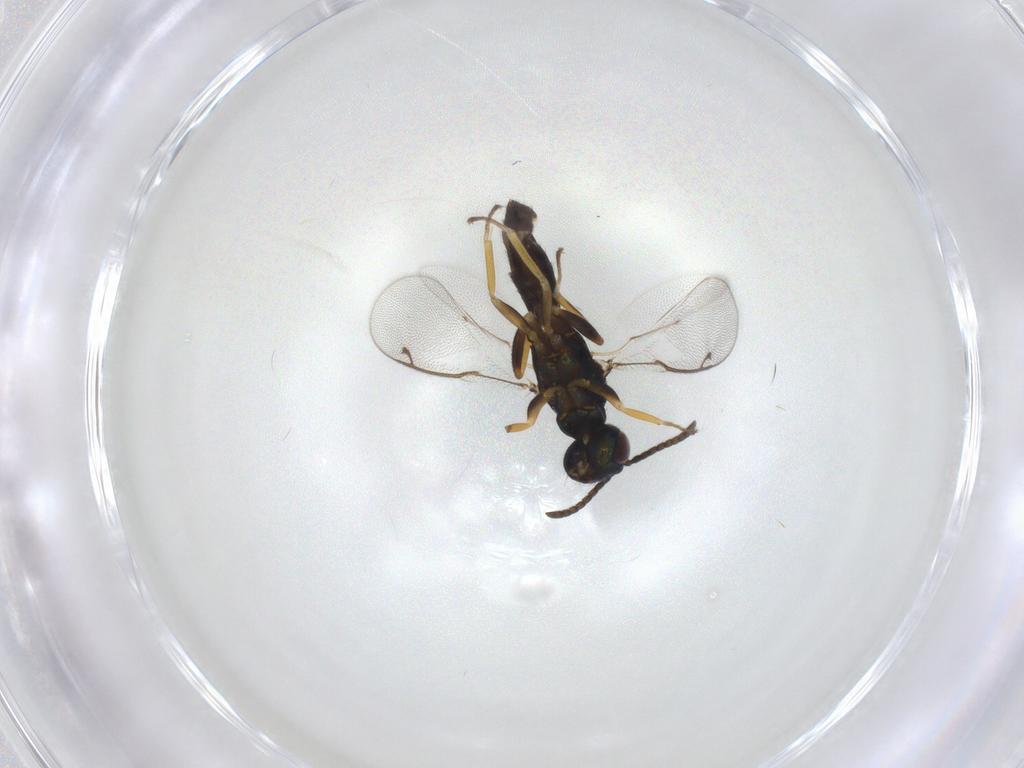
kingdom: Animalia
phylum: Arthropoda
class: Insecta
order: Hymenoptera
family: Eupelmidae
